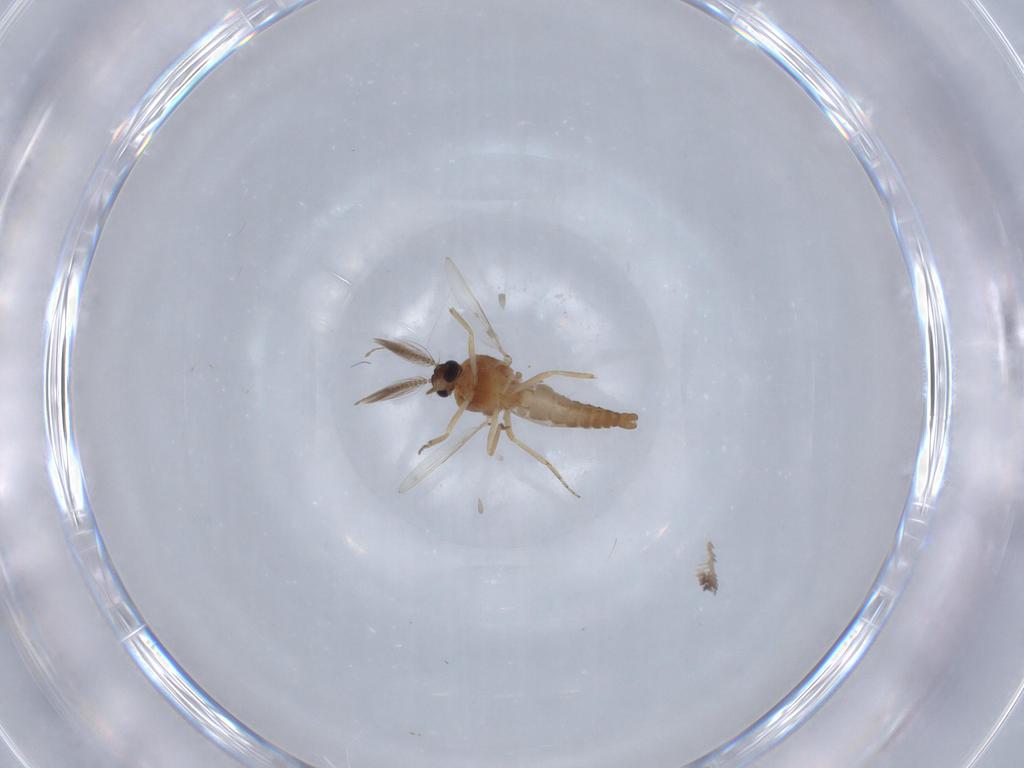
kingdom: Animalia
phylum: Arthropoda
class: Insecta
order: Diptera
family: Ceratopogonidae
